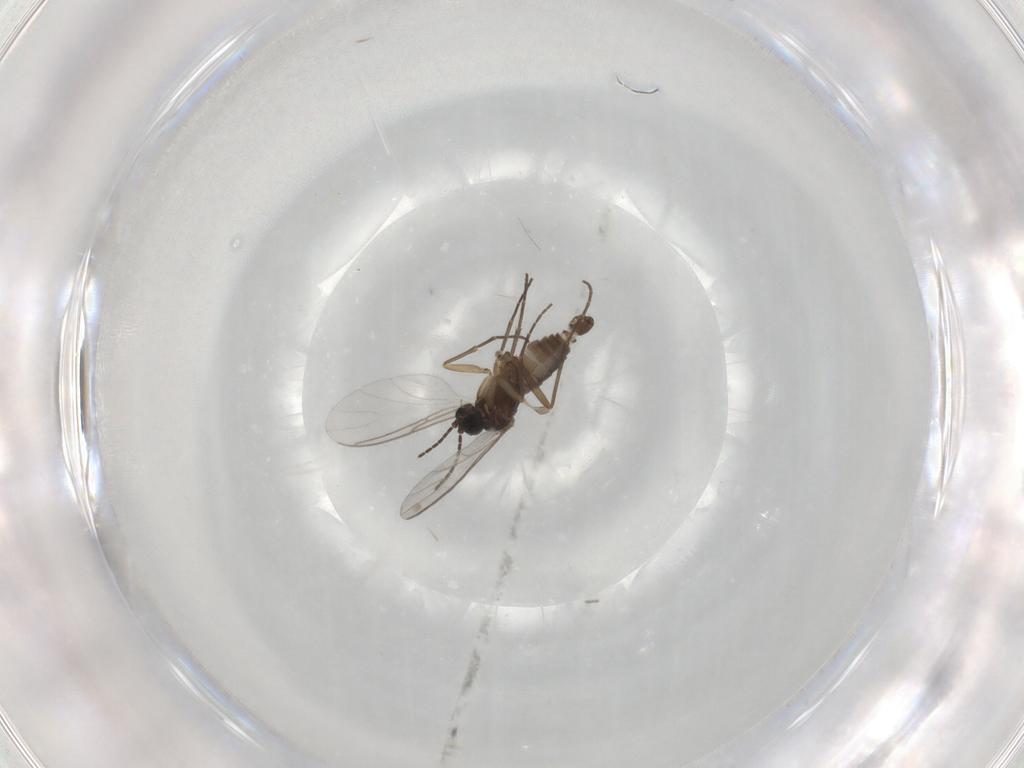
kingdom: Animalia
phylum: Arthropoda
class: Insecta
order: Diptera
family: Sciaridae
